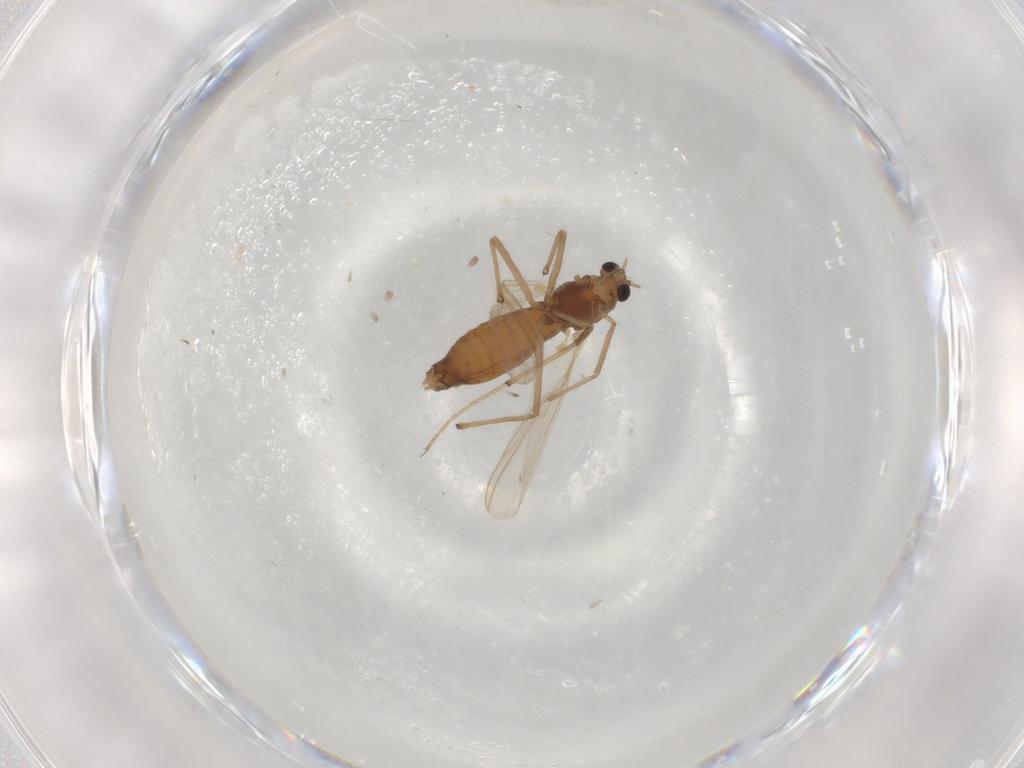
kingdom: Animalia
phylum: Arthropoda
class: Insecta
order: Diptera
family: Chironomidae
